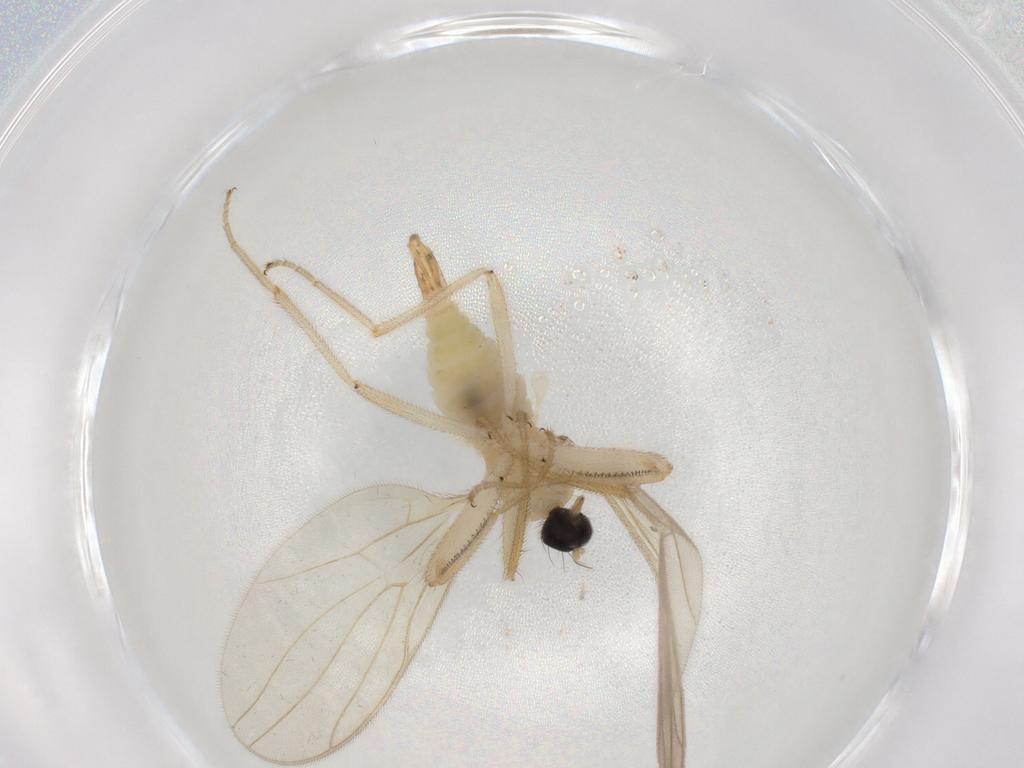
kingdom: Animalia
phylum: Arthropoda
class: Insecta
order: Diptera
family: Hybotidae
